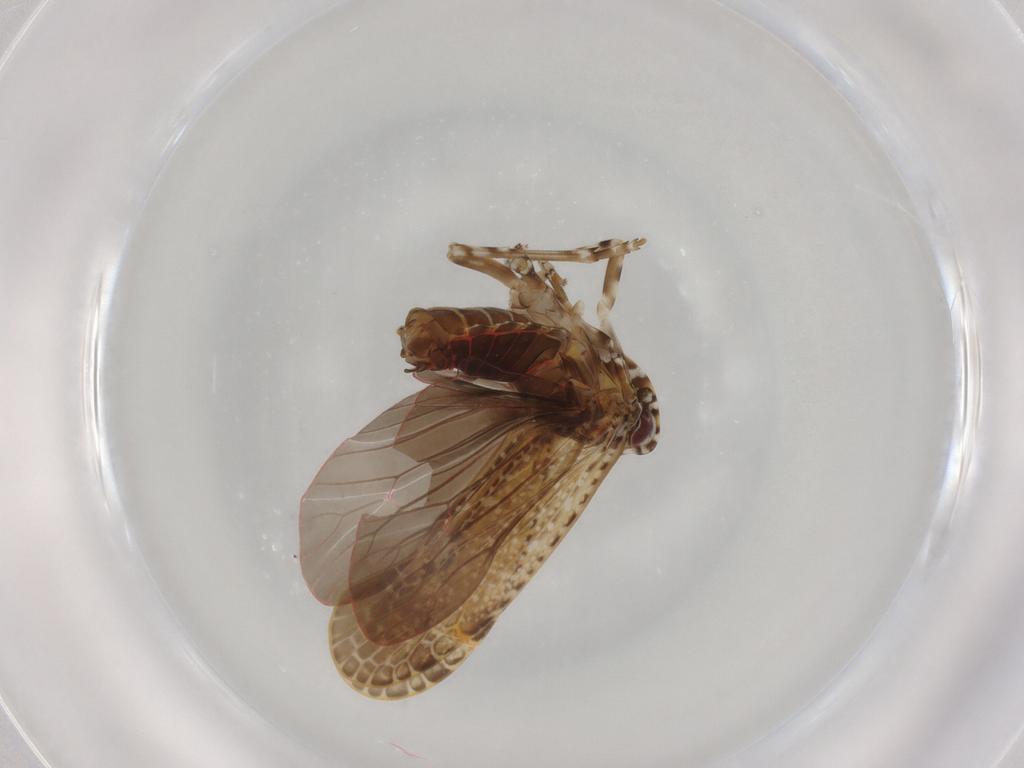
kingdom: Animalia
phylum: Arthropoda
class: Insecta
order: Hemiptera
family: Achilidae
